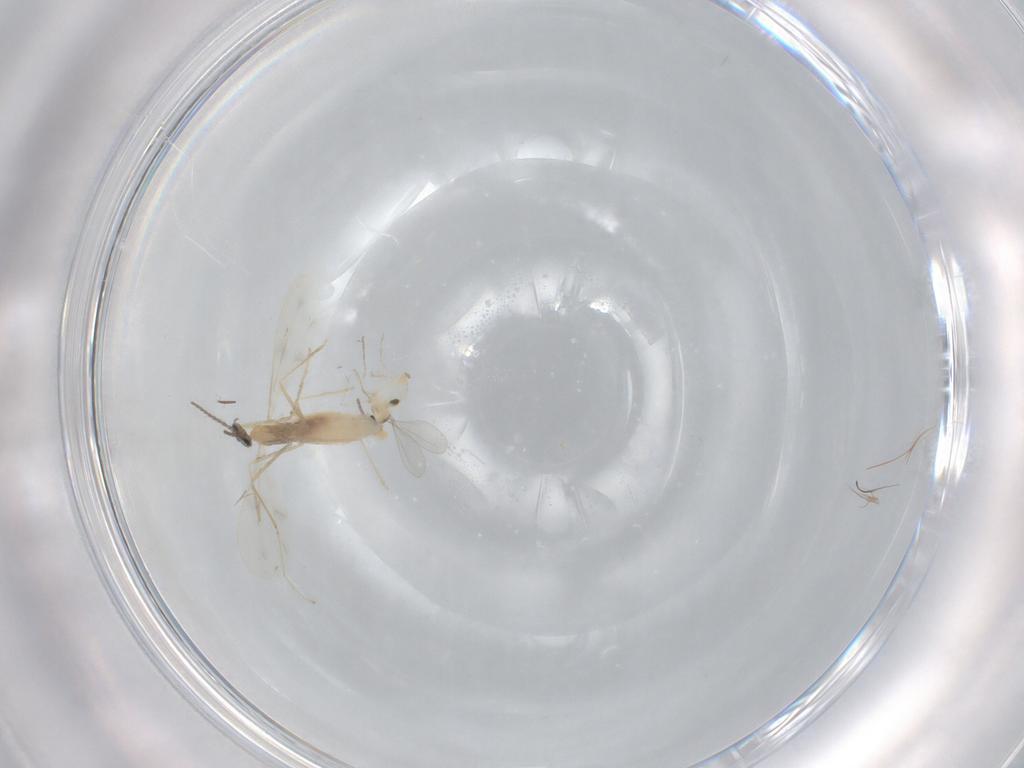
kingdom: Animalia
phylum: Arthropoda
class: Insecta
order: Diptera
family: Cecidomyiidae
